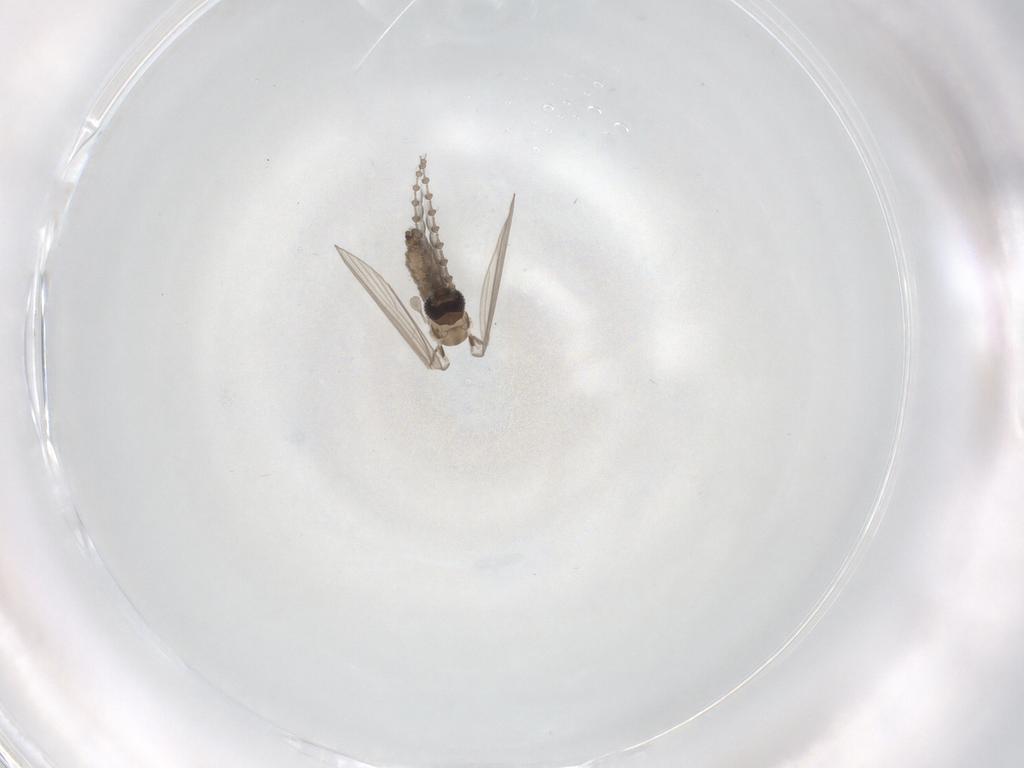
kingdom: Animalia
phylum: Arthropoda
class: Insecta
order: Diptera
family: Psychodidae
